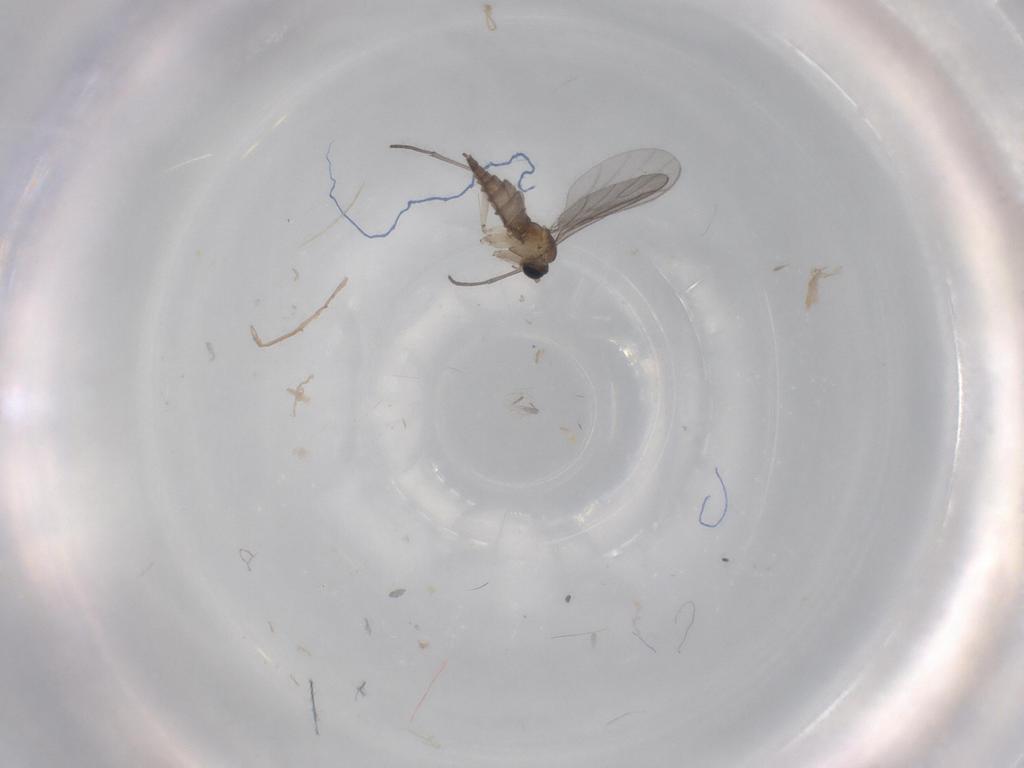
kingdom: Animalia
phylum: Arthropoda
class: Insecta
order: Diptera
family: Sciaridae
